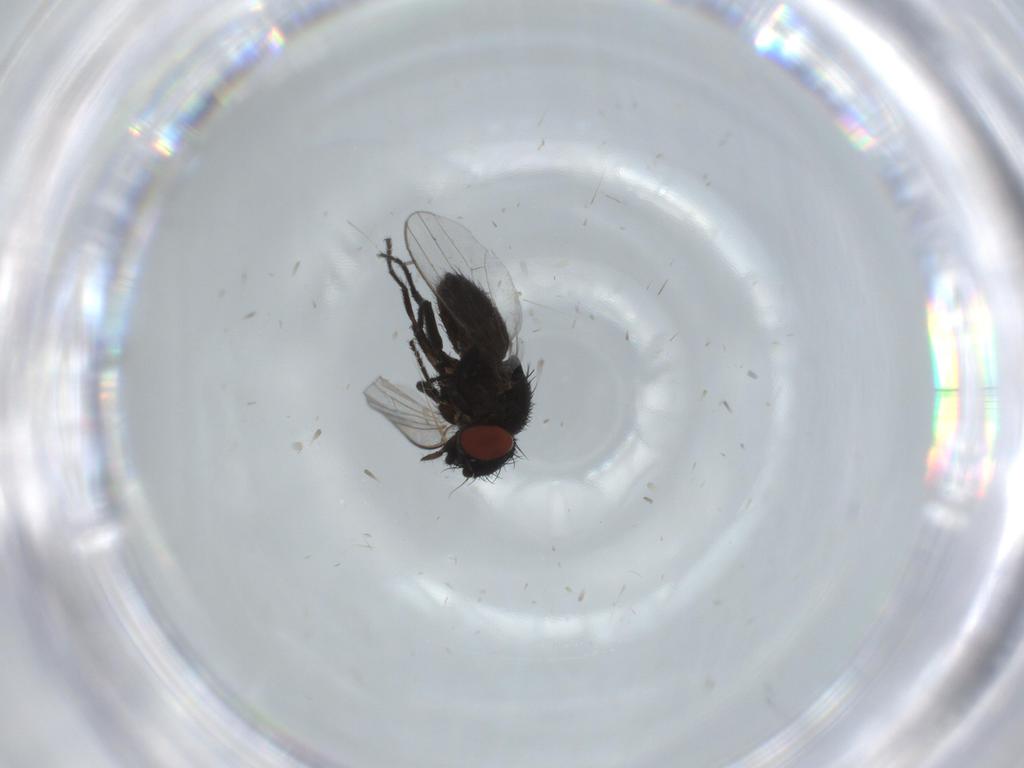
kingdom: Animalia
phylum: Arthropoda
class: Insecta
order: Diptera
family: Milichiidae
